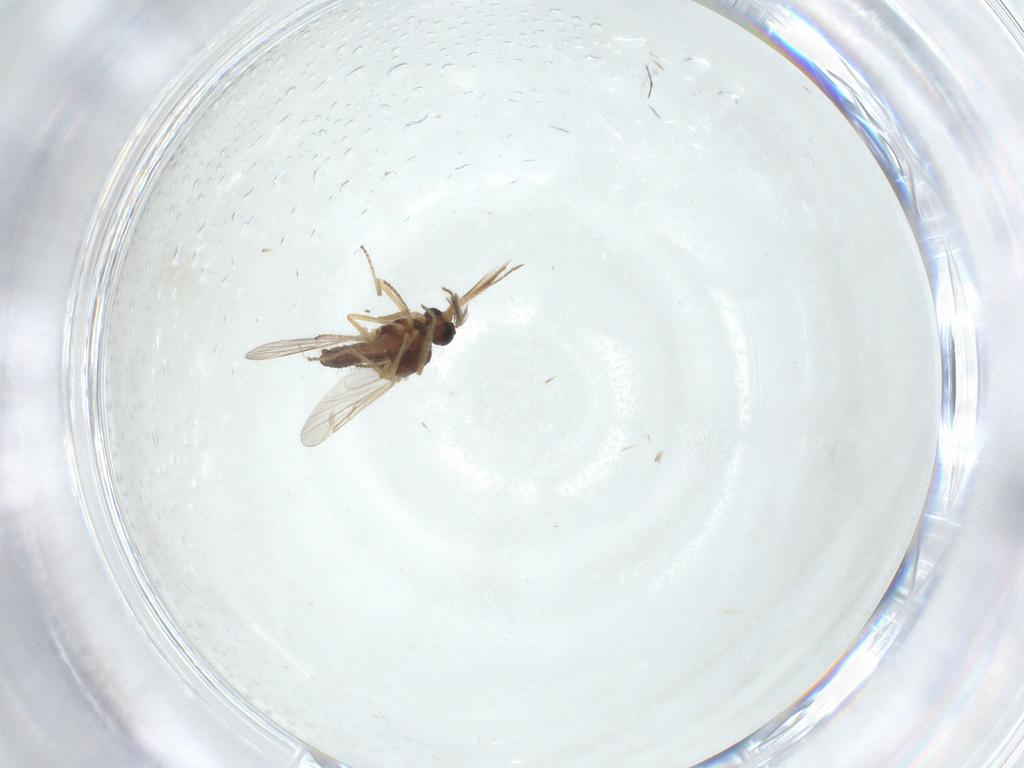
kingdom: Animalia
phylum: Arthropoda
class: Insecta
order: Diptera
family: Ceratopogonidae
